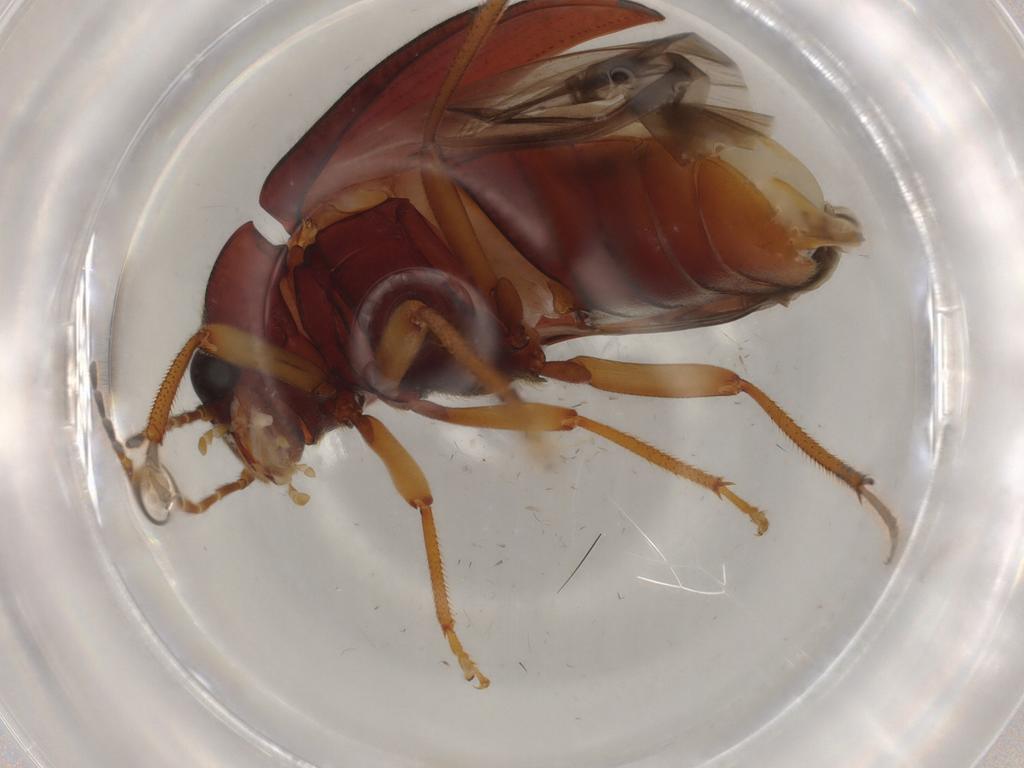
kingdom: Animalia
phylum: Arthropoda
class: Insecta
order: Coleoptera
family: Ptilodactylidae
